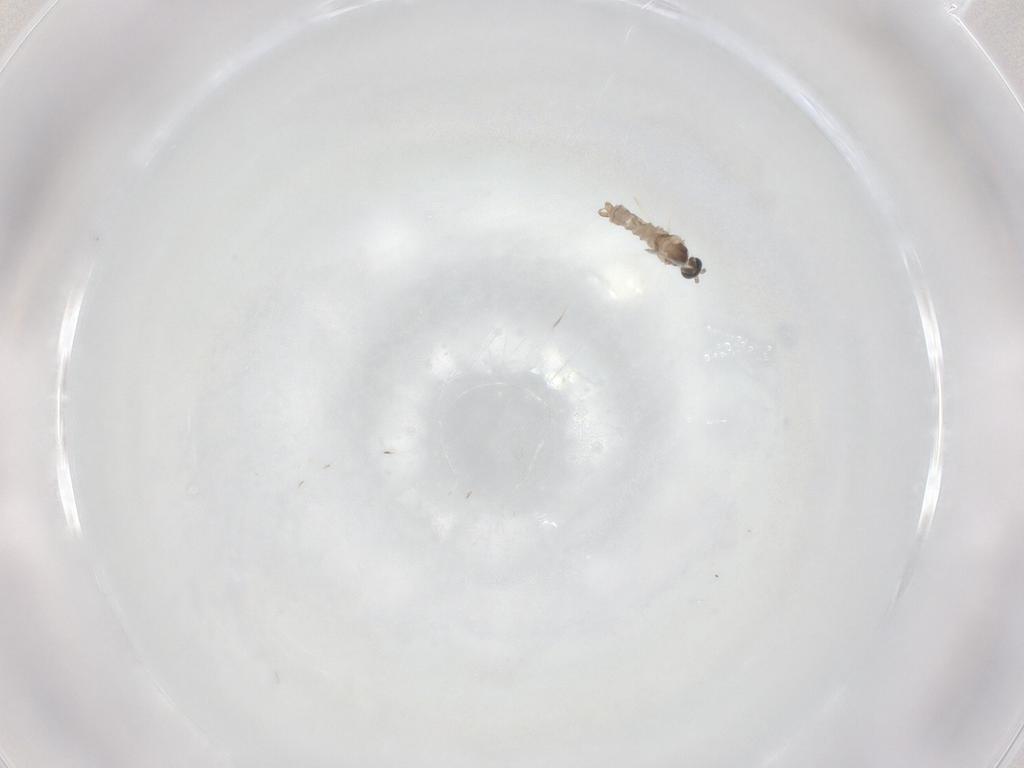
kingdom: Animalia
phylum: Arthropoda
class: Insecta
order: Diptera
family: Cecidomyiidae
